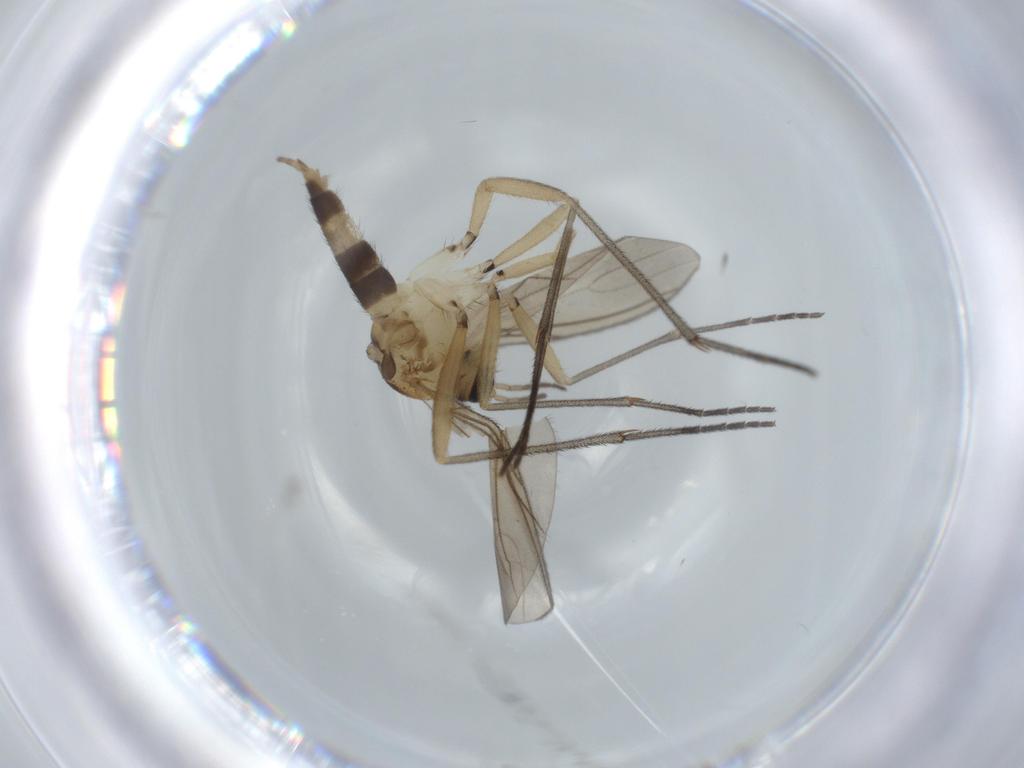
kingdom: Animalia
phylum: Arthropoda
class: Insecta
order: Diptera
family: Sciaridae
